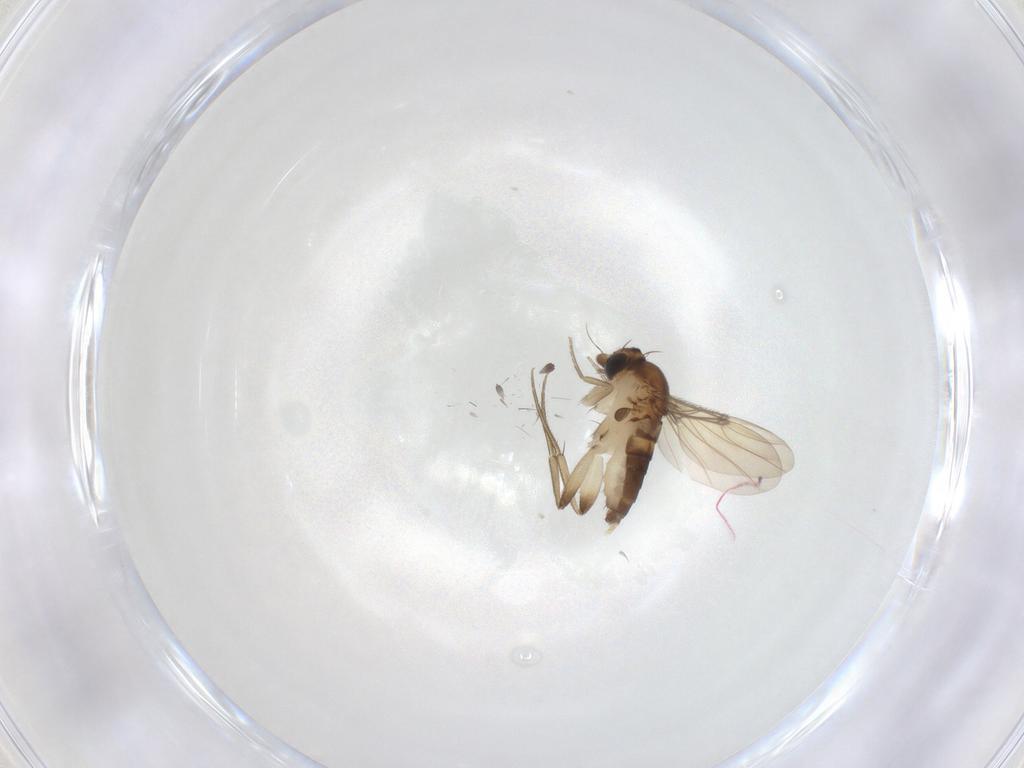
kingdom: Animalia
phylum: Arthropoda
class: Insecta
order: Diptera
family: Phoridae
